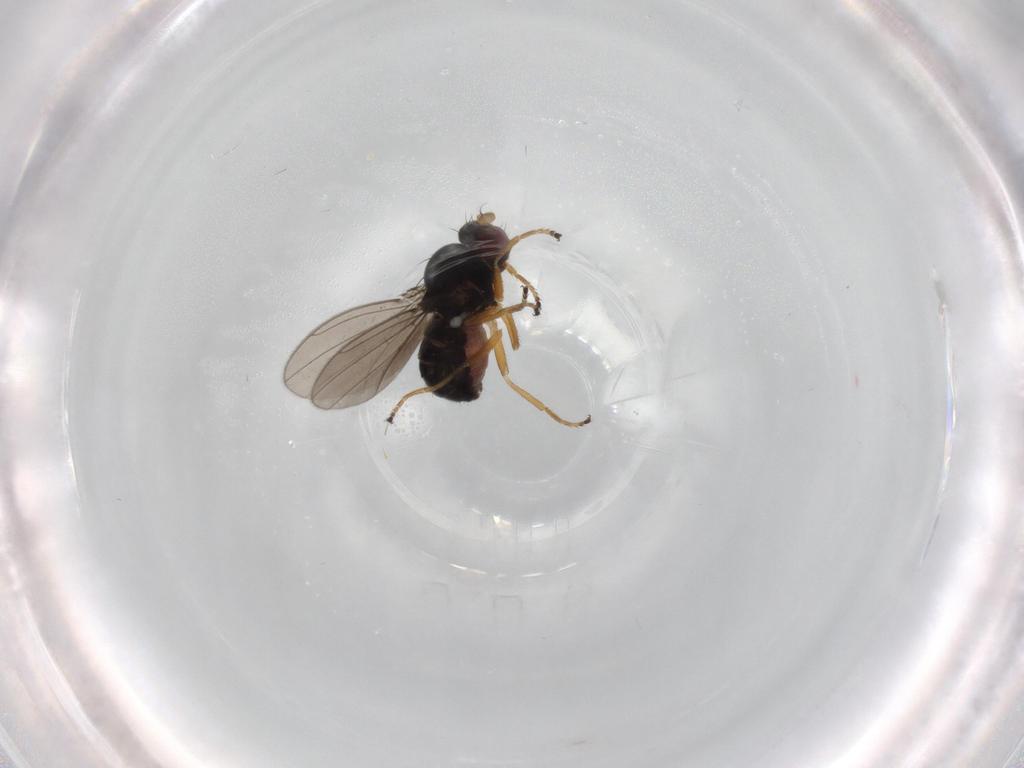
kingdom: Animalia
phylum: Arthropoda
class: Insecta
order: Diptera
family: Ephydridae
